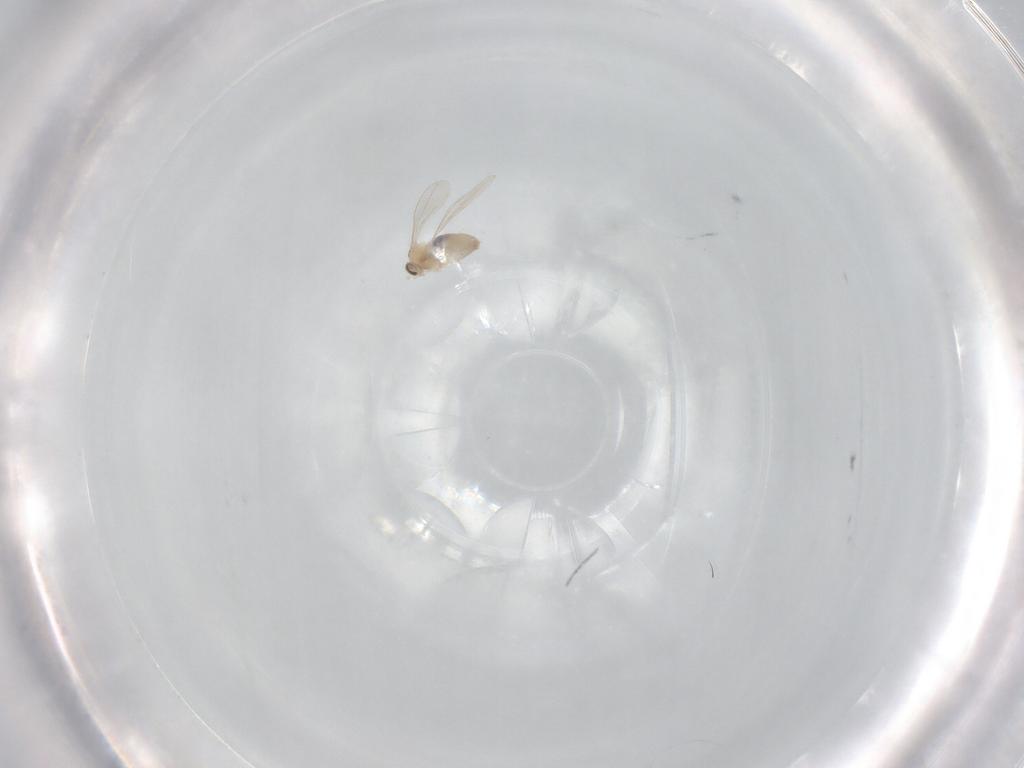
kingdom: Animalia
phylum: Arthropoda
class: Insecta
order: Diptera
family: Cecidomyiidae
